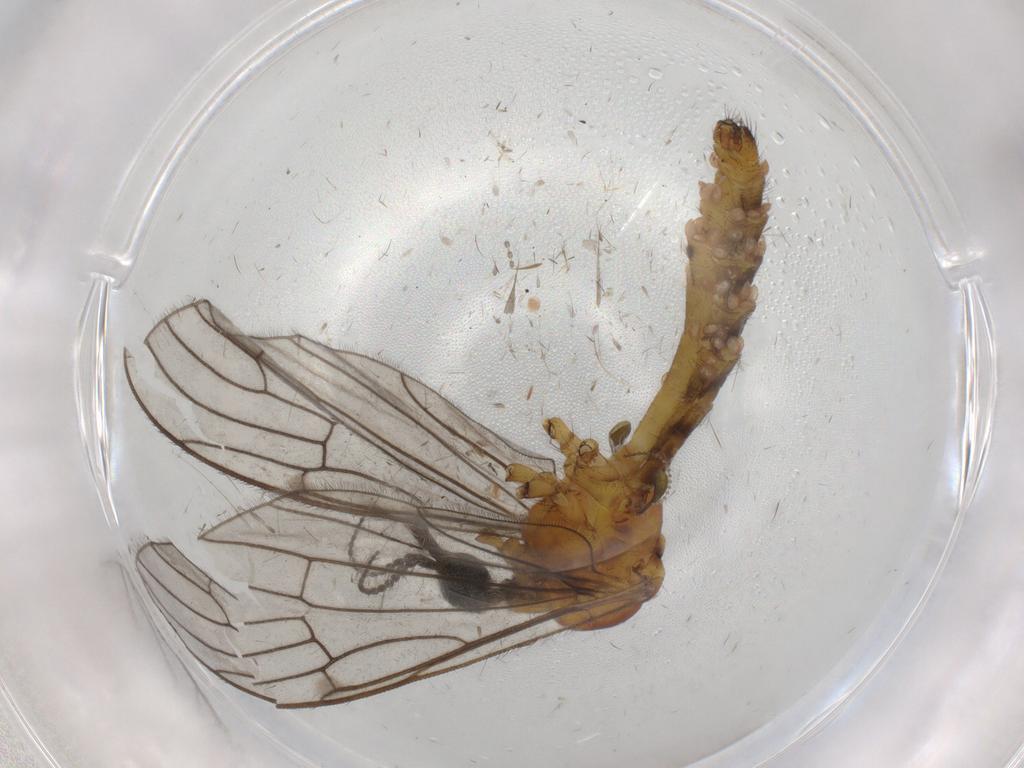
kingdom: Animalia
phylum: Arthropoda
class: Insecta
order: Diptera
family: Limoniidae
